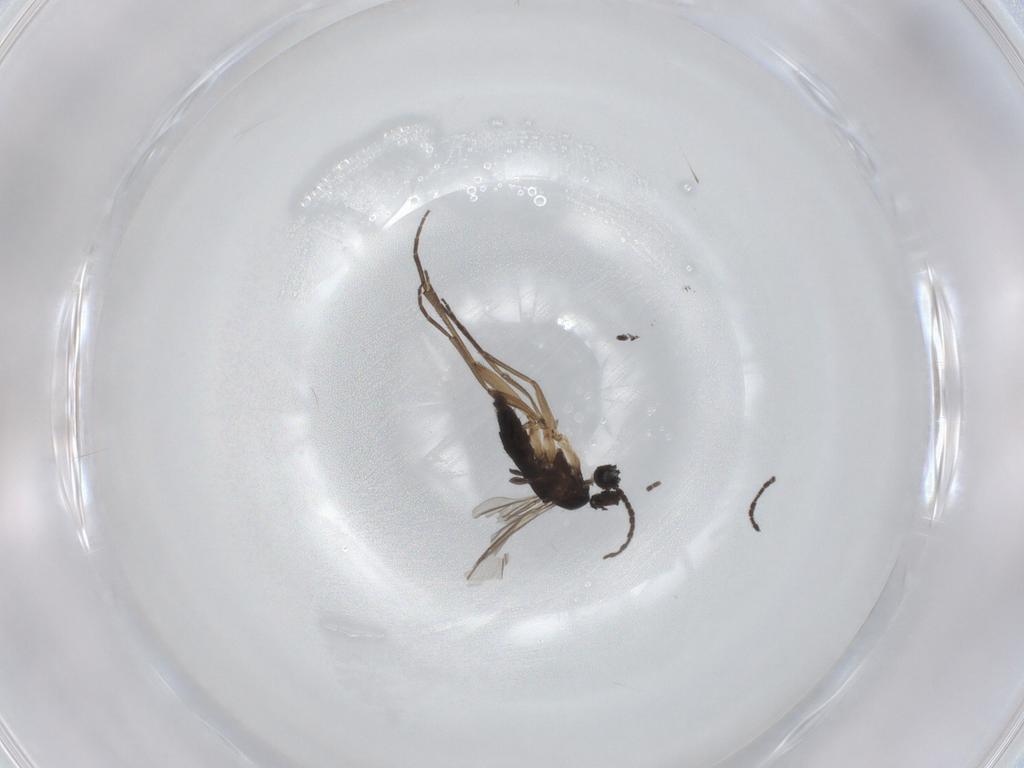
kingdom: Animalia
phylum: Arthropoda
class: Insecta
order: Diptera
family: Sciaridae
